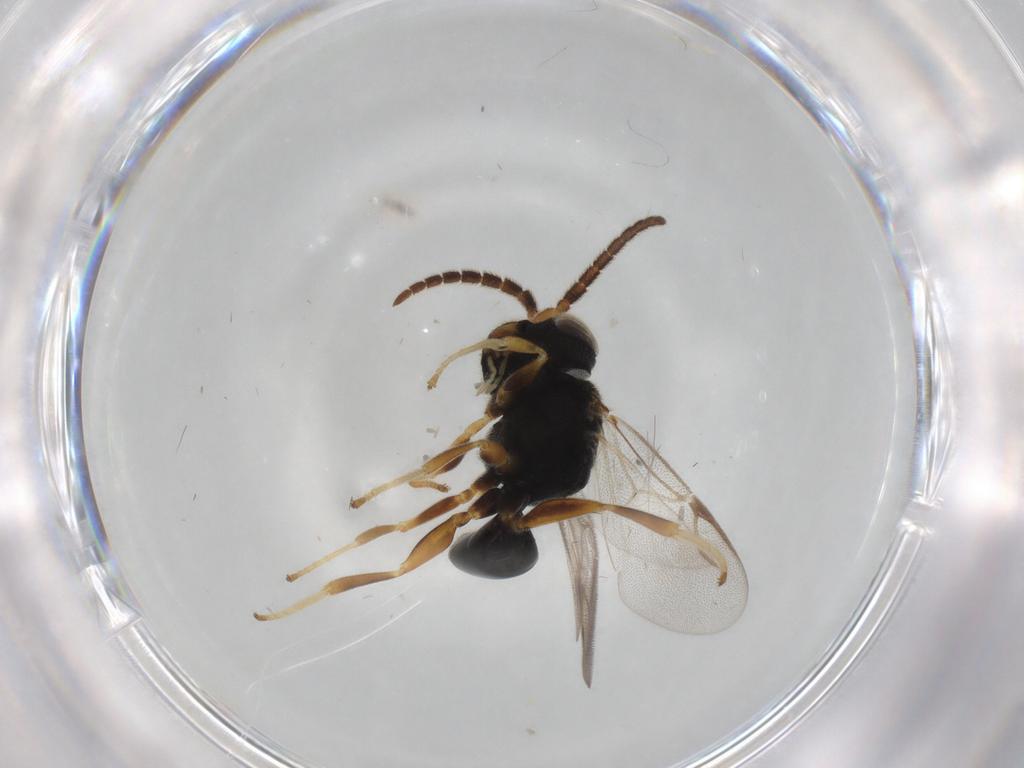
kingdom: Animalia
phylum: Arthropoda
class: Insecta
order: Hymenoptera
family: Dryinidae
